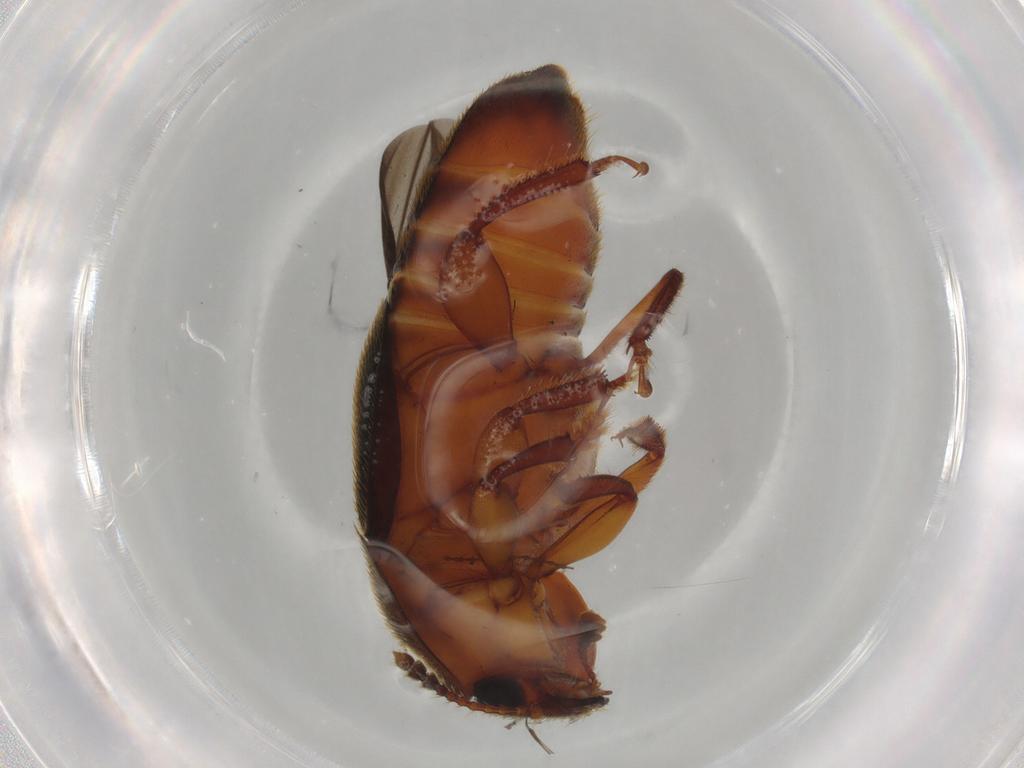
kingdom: Animalia
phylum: Arthropoda
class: Insecta
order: Coleoptera
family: Nitidulidae
